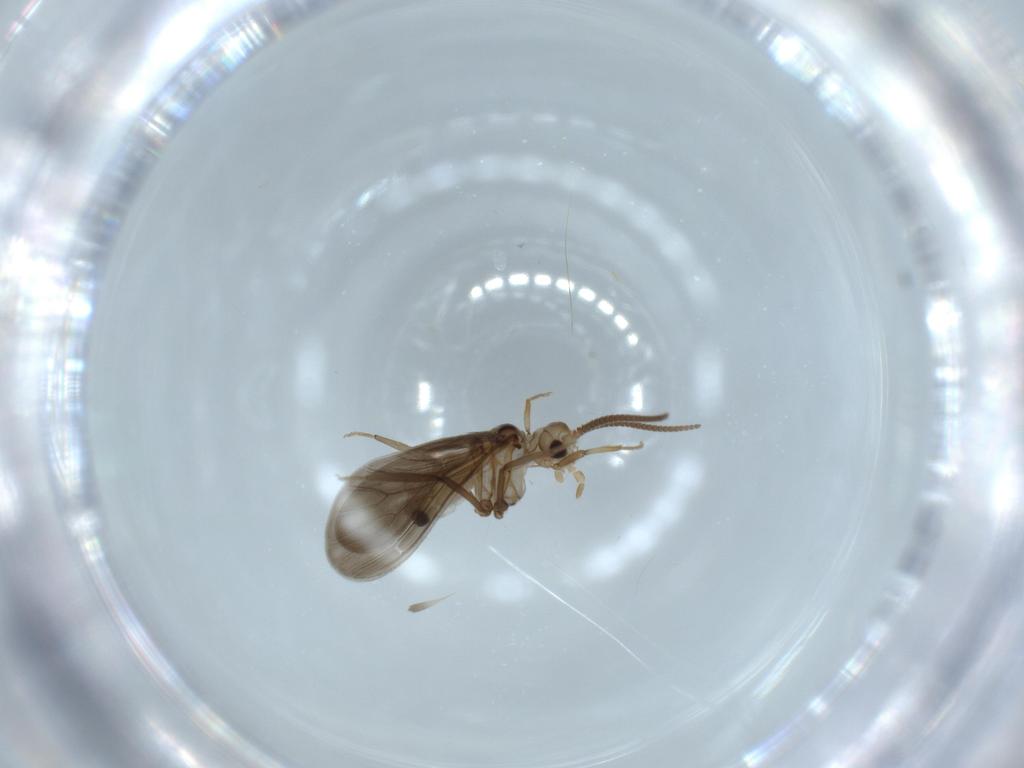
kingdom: Animalia
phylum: Arthropoda
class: Insecta
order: Neuroptera
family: Coniopterygidae
